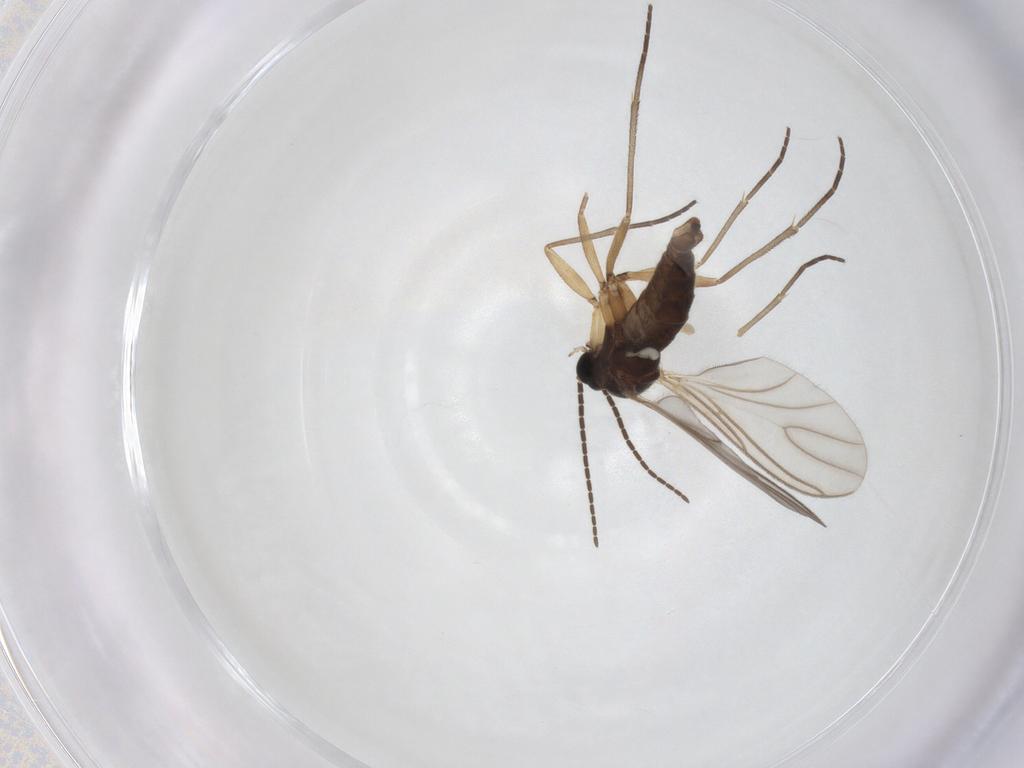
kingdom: Animalia
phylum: Arthropoda
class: Insecta
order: Diptera
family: Sciaridae
